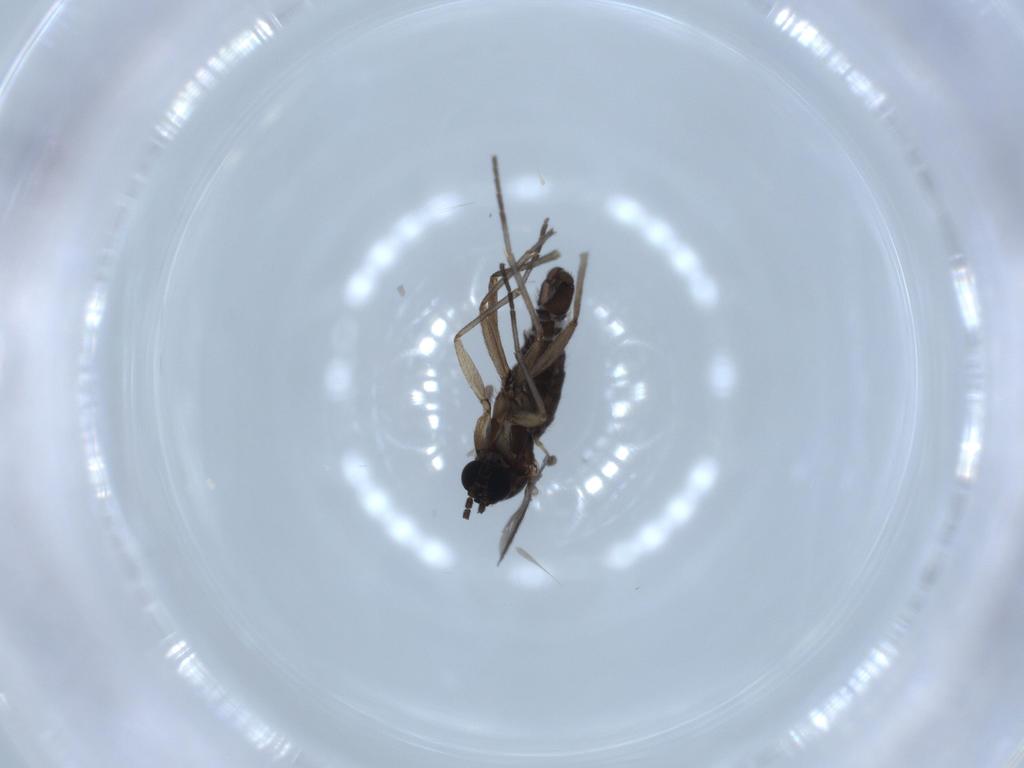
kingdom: Animalia
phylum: Arthropoda
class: Insecta
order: Diptera
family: Sciaridae
